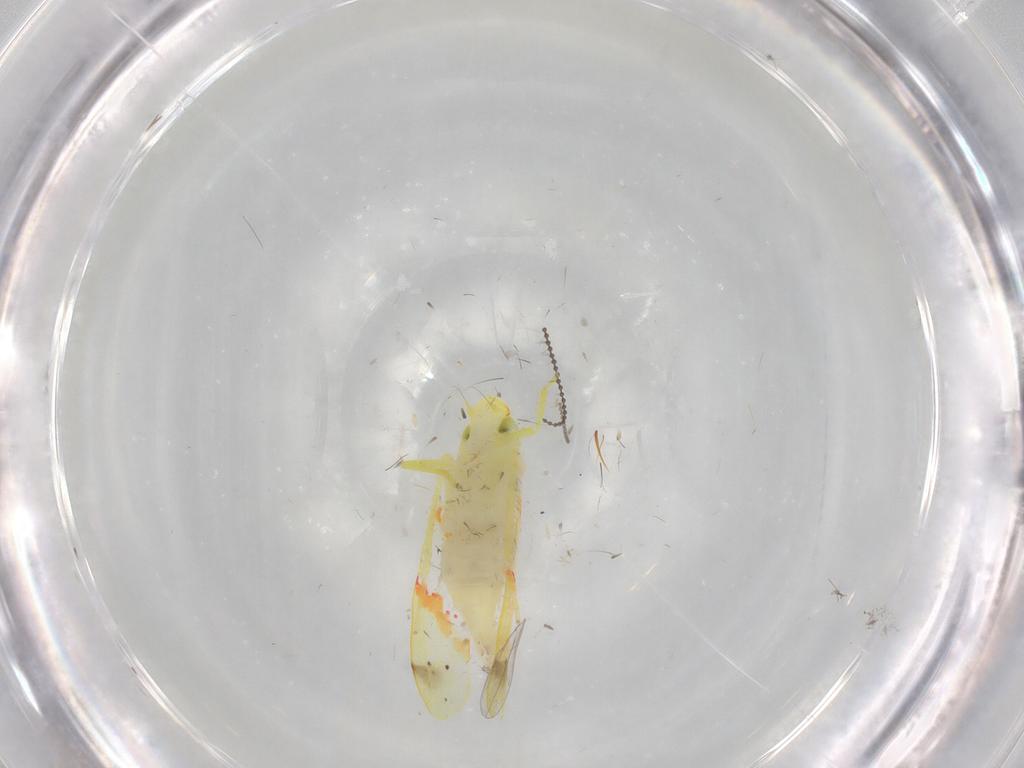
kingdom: Animalia
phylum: Arthropoda
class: Insecta
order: Hemiptera
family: Cicadellidae
